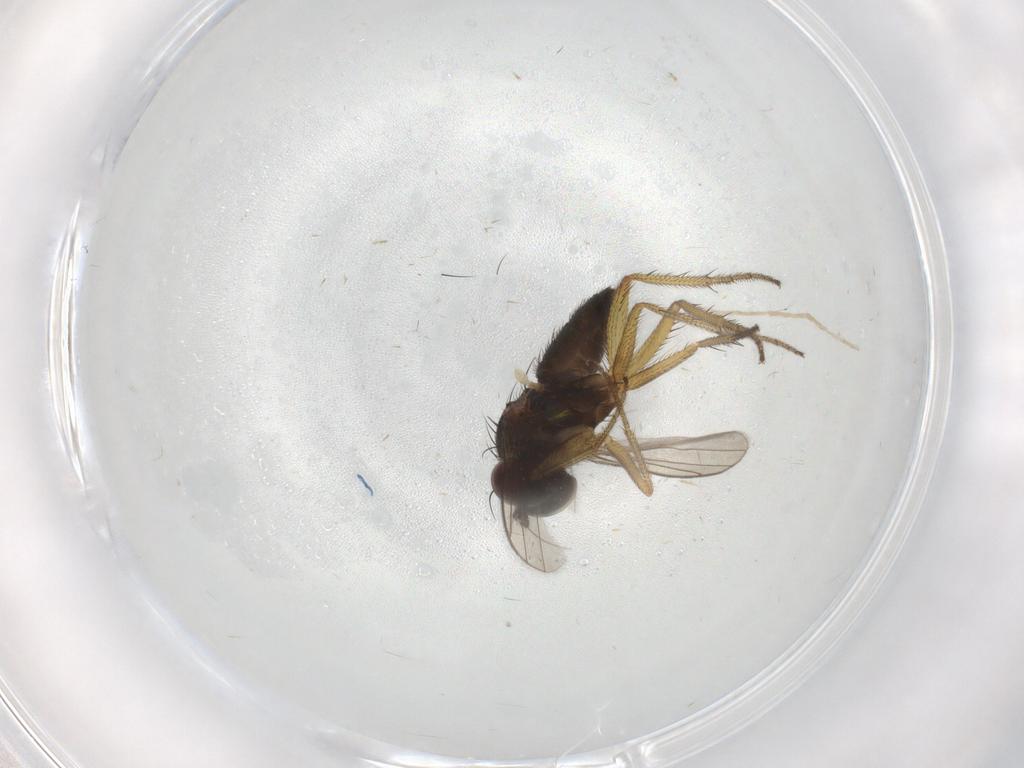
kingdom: Animalia
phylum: Arthropoda
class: Insecta
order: Diptera
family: Dolichopodidae
